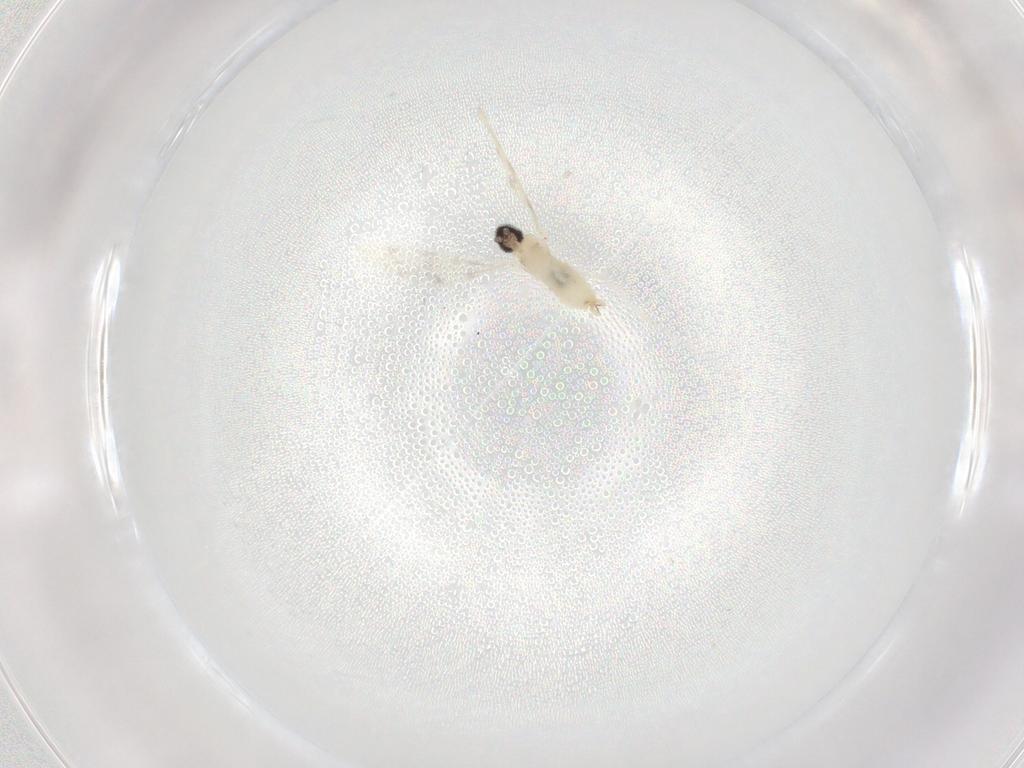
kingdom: Animalia
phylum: Arthropoda
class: Insecta
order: Diptera
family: Cecidomyiidae
